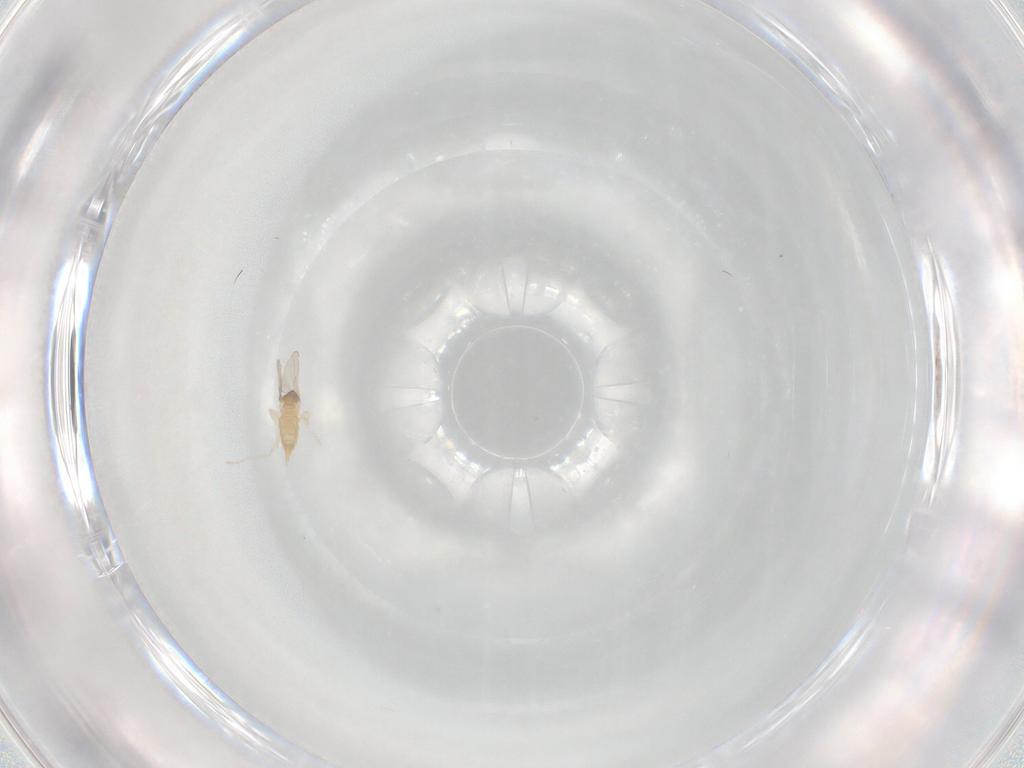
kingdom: Animalia
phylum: Arthropoda
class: Insecta
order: Diptera
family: Cecidomyiidae
